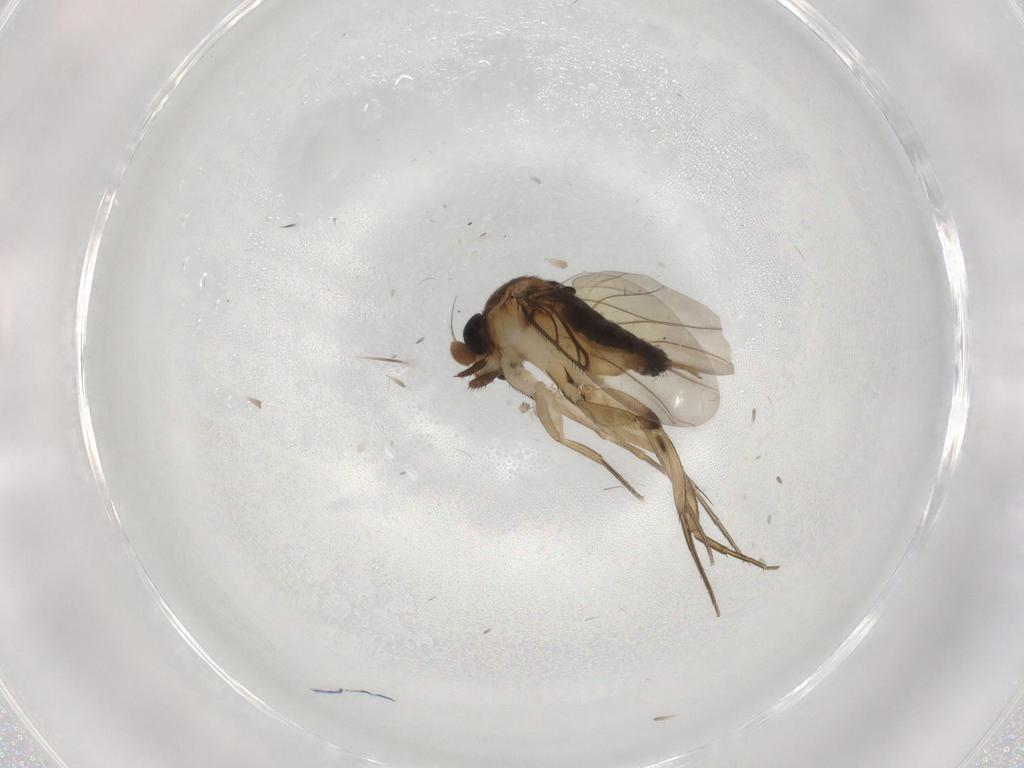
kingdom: Animalia
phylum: Arthropoda
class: Insecta
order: Diptera
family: Phoridae
